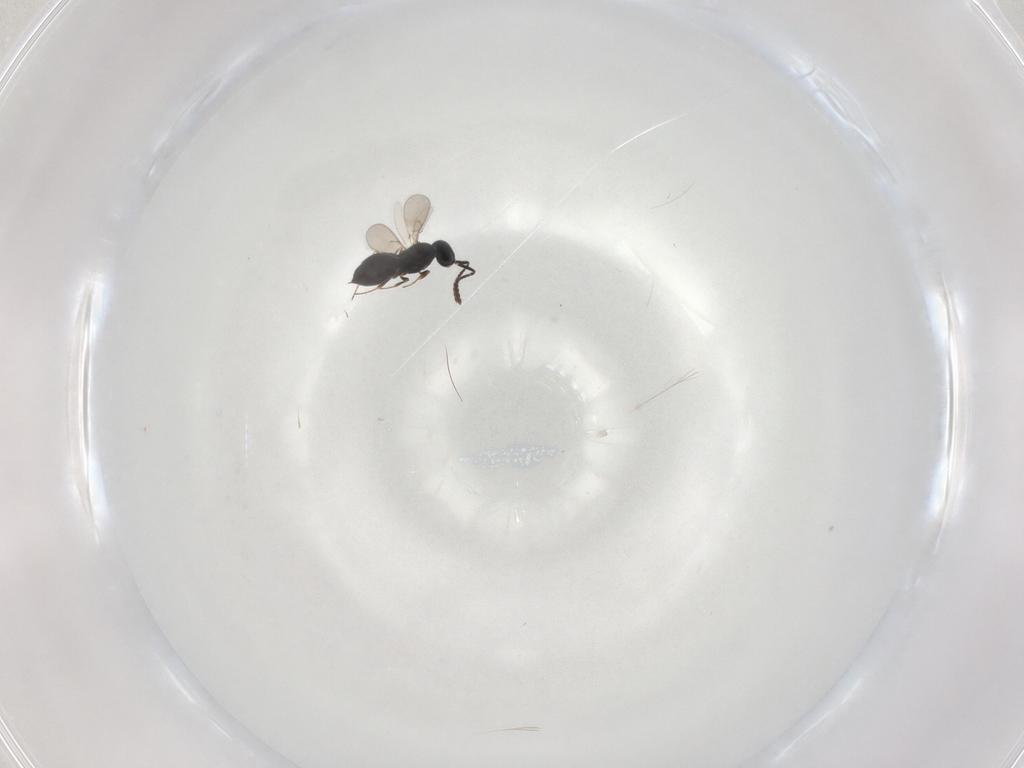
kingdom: Animalia
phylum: Arthropoda
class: Insecta
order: Hymenoptera
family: Scelionidae
